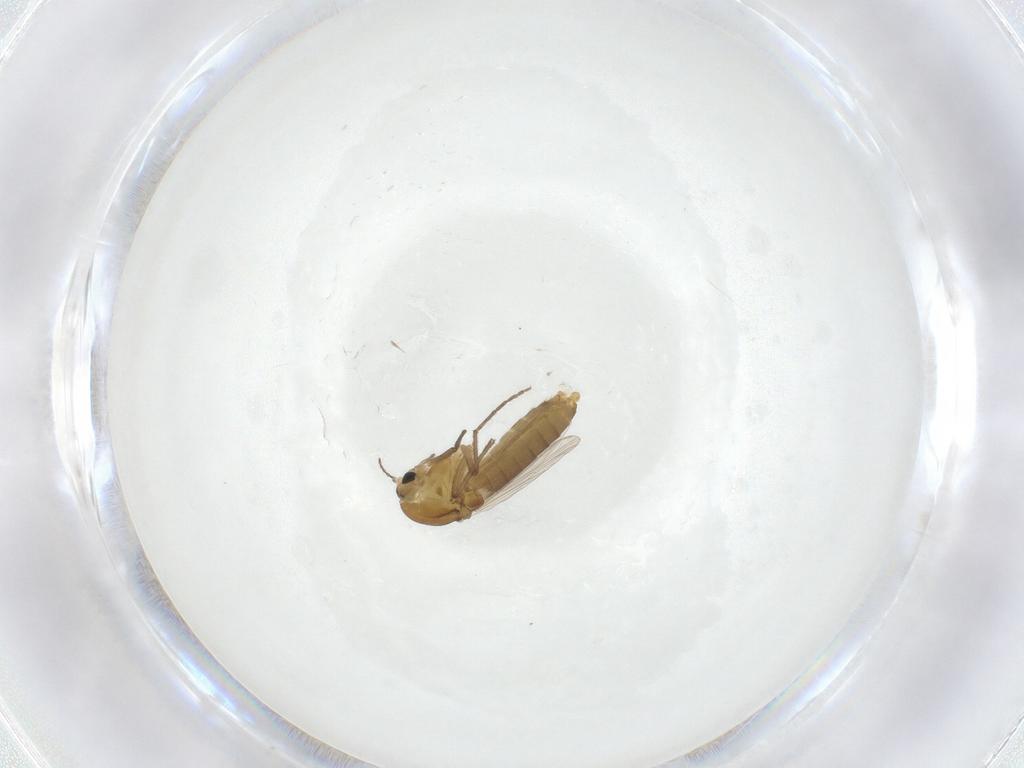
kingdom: Animalia
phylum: Arthropoda
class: Insecta
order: Diptera
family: Chironomidae
